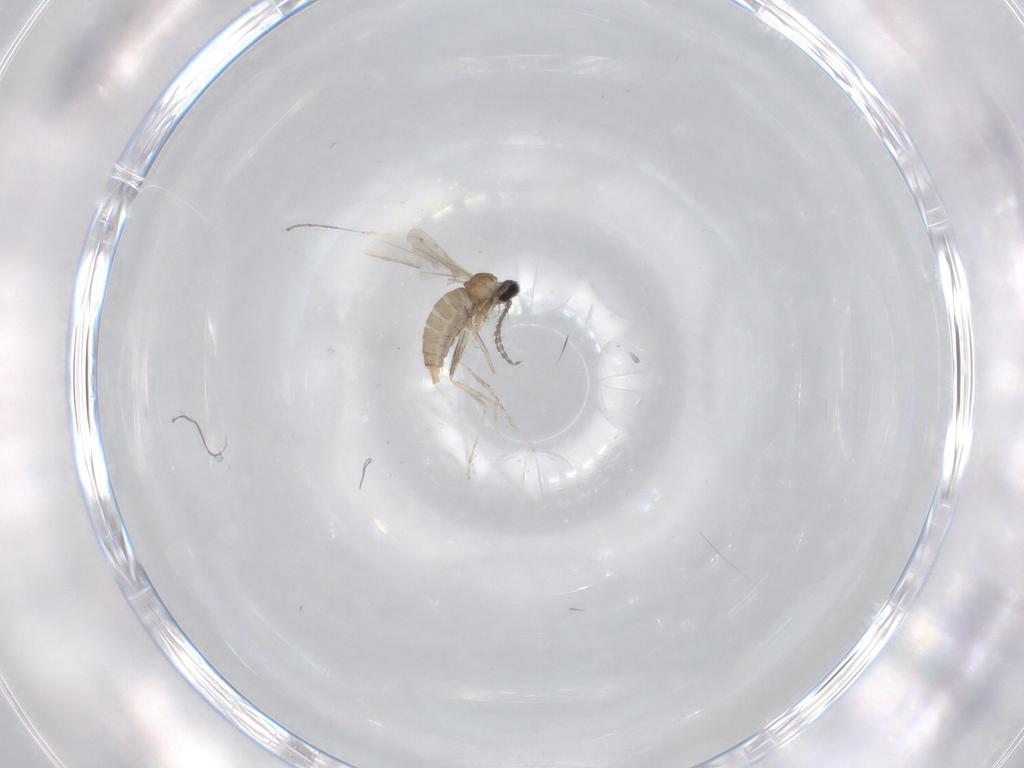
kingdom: Animalia
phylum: Arthropoda
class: Insecta
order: Diptera
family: Cecidomyiidae
